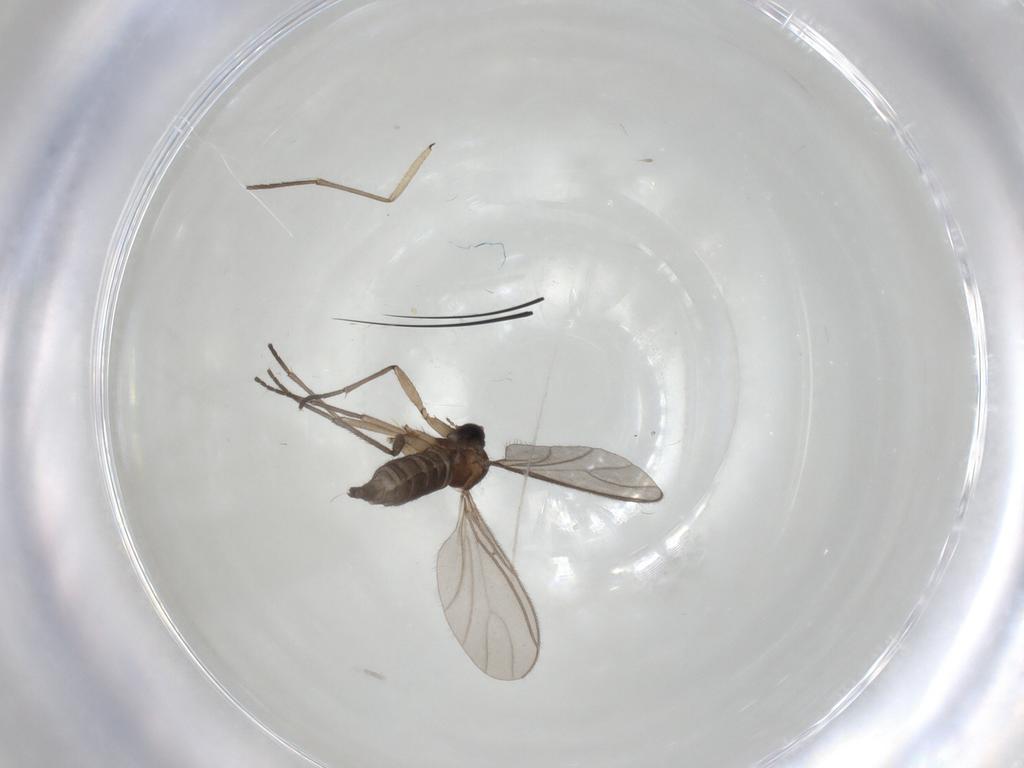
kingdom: Animalia
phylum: Arthropoda
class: Insecta
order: Diptera
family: Sciaridae
